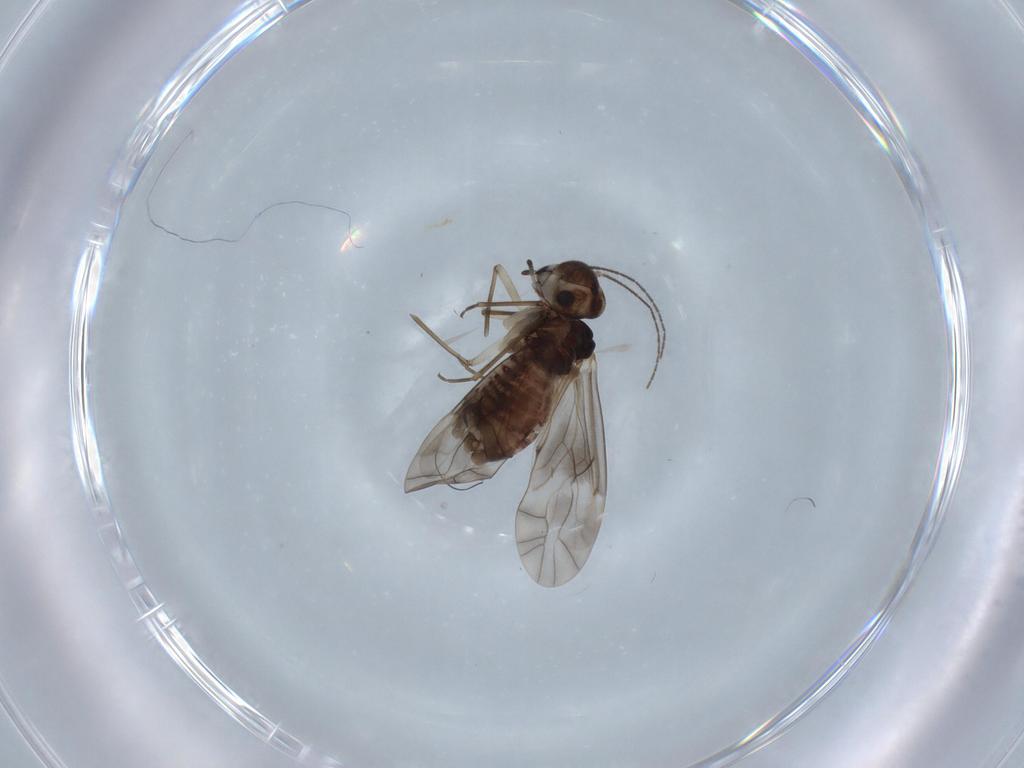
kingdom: Animalia
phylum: Arthropoda
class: Insecta
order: Psocodea
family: Peripsocidae
